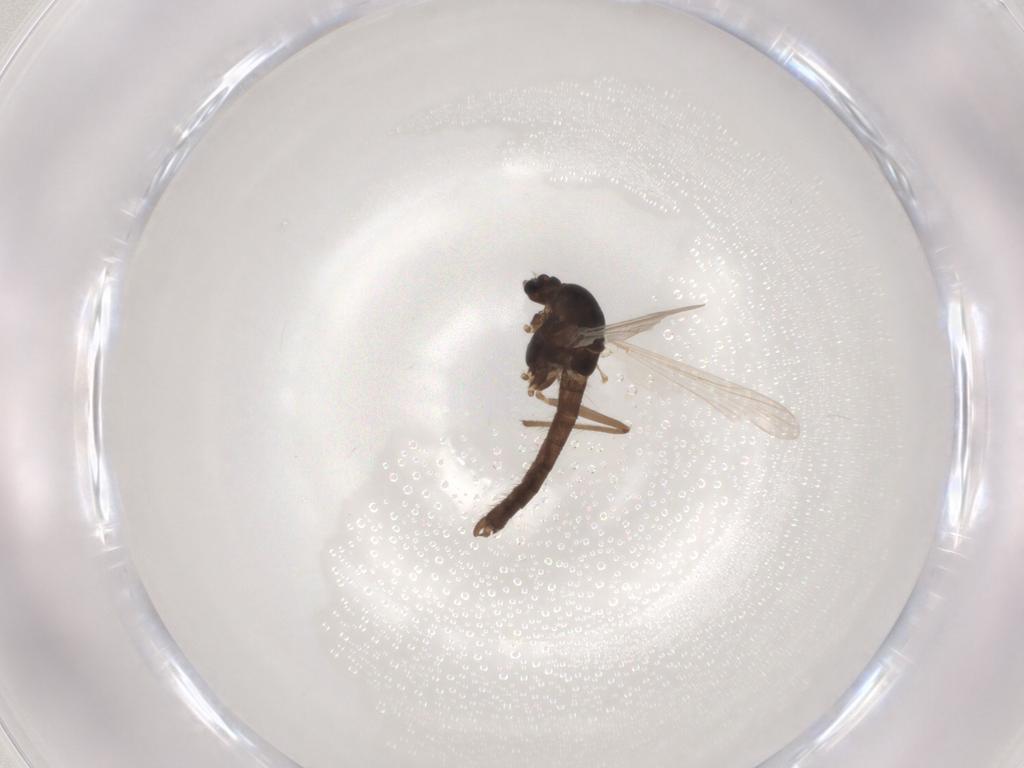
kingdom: Animalia
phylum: Arthropoda
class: Insecta
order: Diptera
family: Chironomidae
